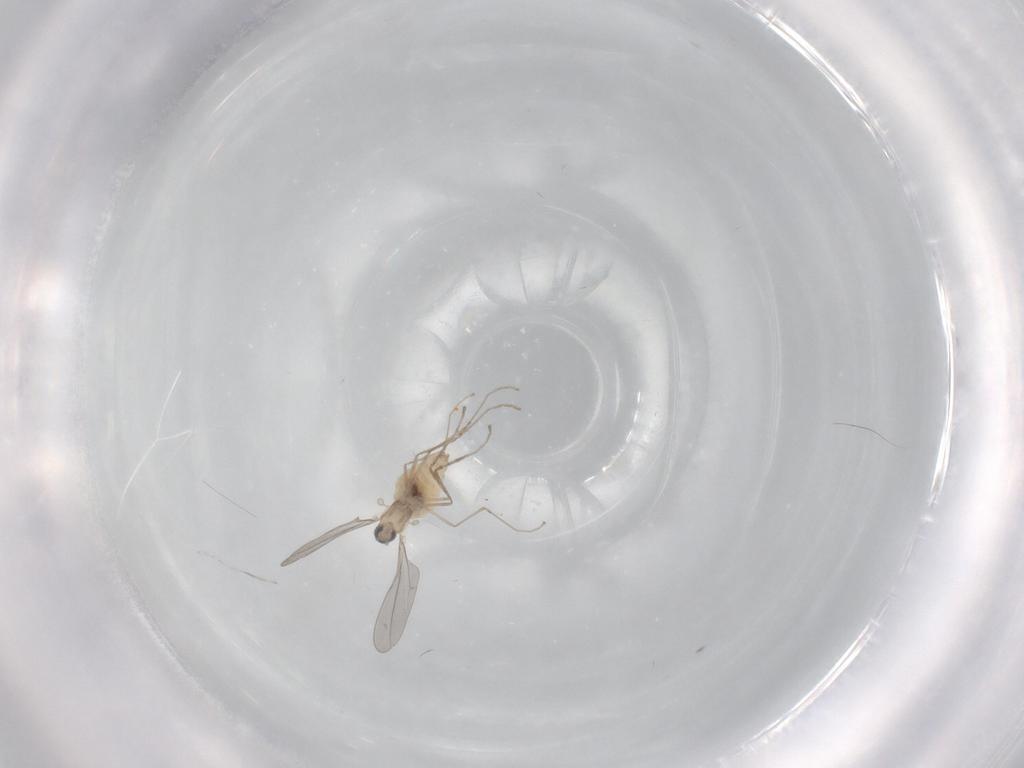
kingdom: Animalia
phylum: Arthropoda
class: Insecta
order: Diptera
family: Cecidomyiidae
